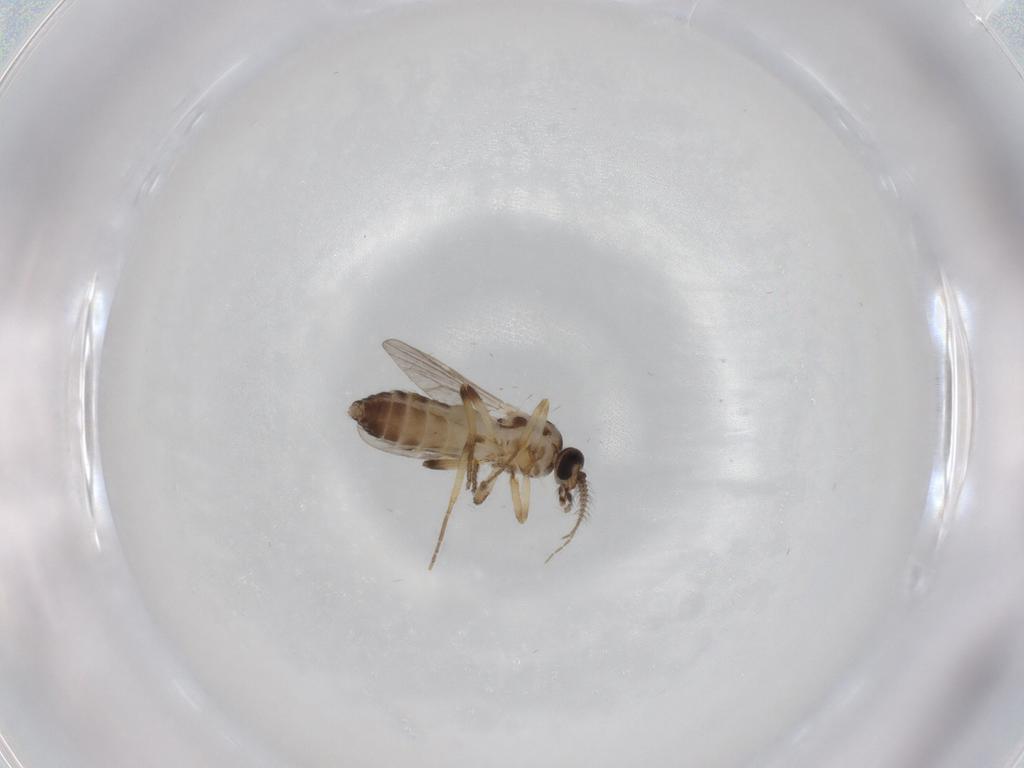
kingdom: Animalia
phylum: Arthropoda
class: Insecta
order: Diptera
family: Ceratopogonidae
